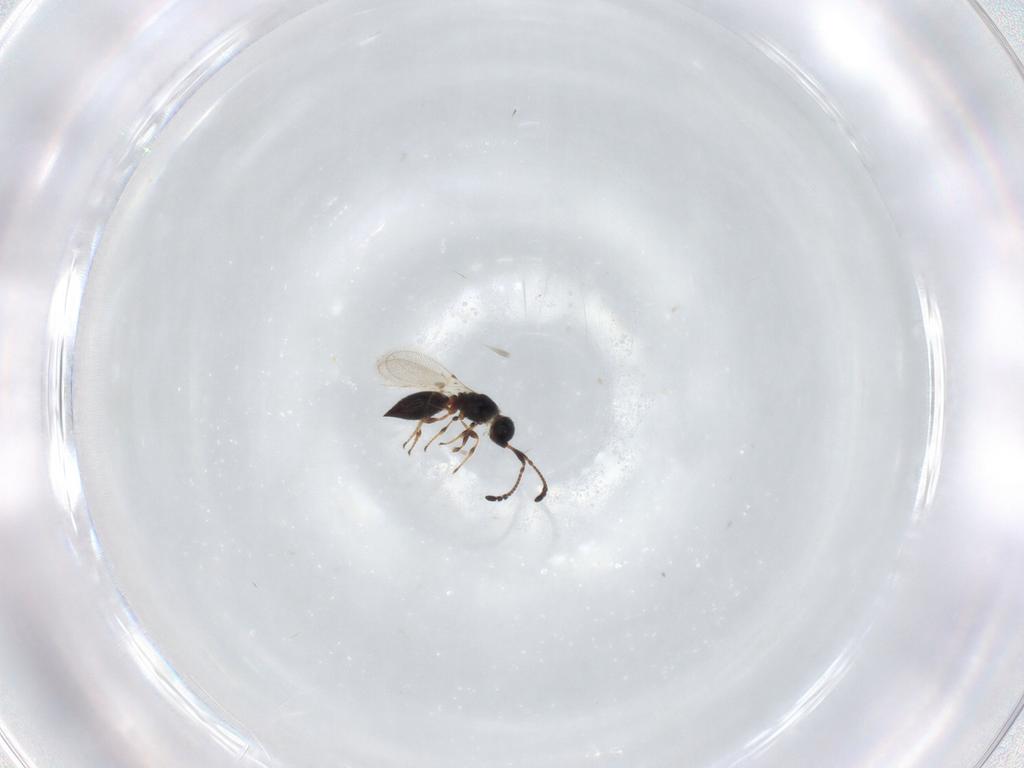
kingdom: Animalia
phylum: Arthropoda
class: Insecta
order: Hymenoptera
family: Diapriidae
